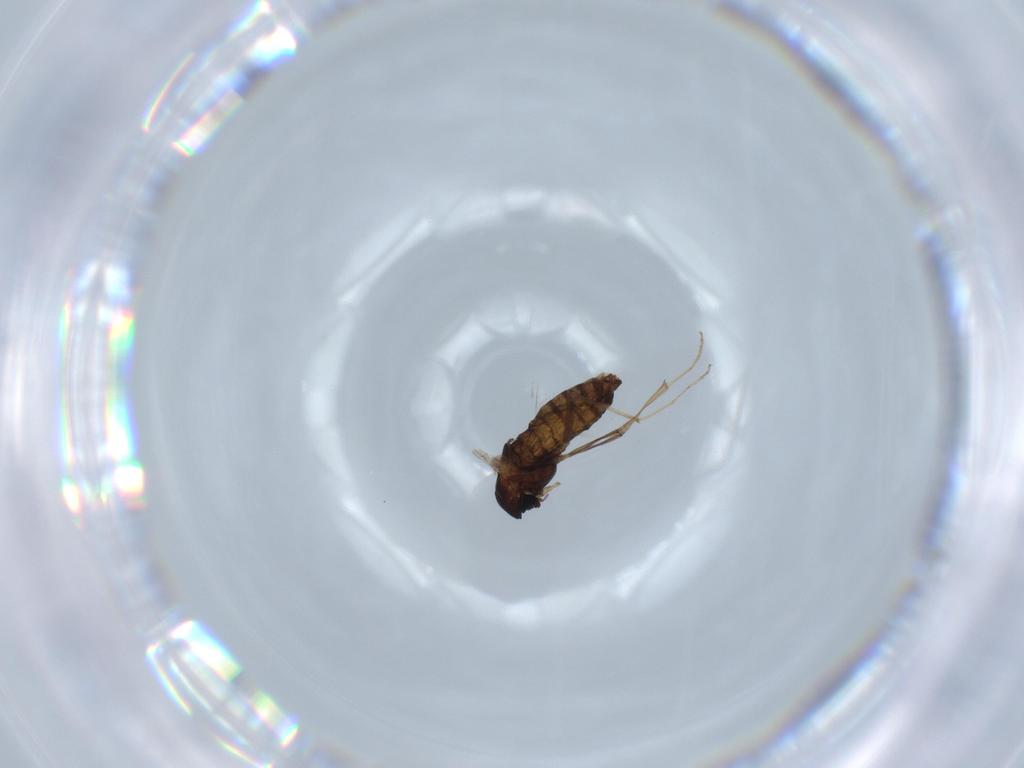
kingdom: Animalia
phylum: Arthropoda
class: Insecta
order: Diptera
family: Chironomidae
